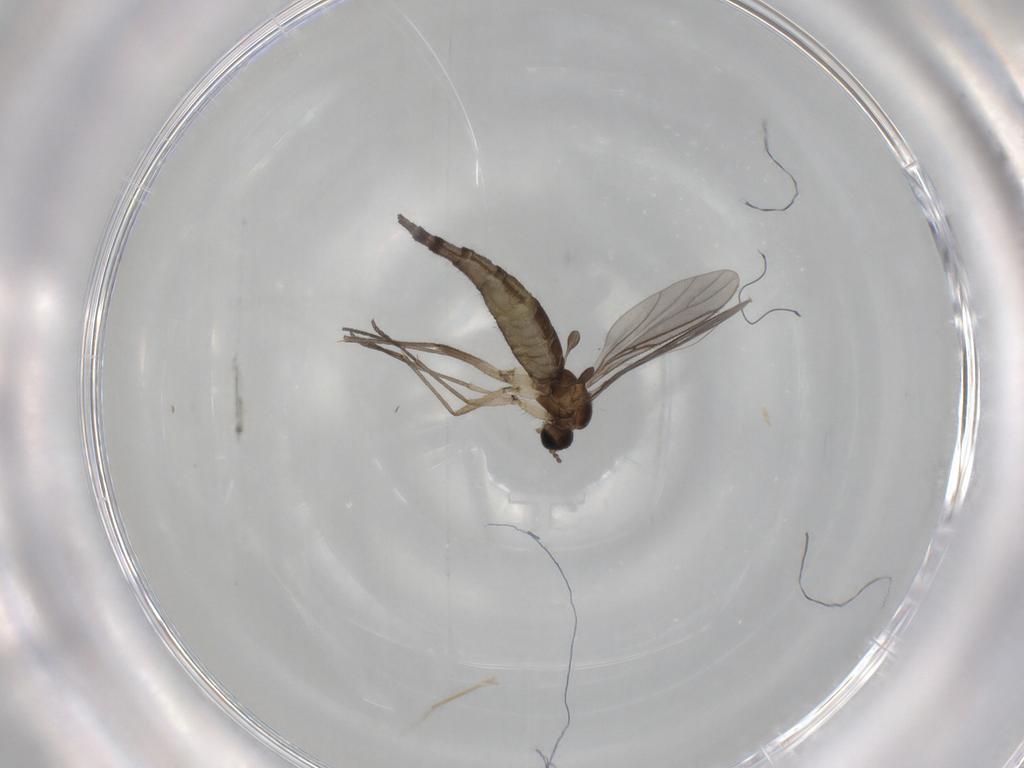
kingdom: Animalia
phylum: Arthropoda
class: Insecta
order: Diptera
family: Sciaridae
